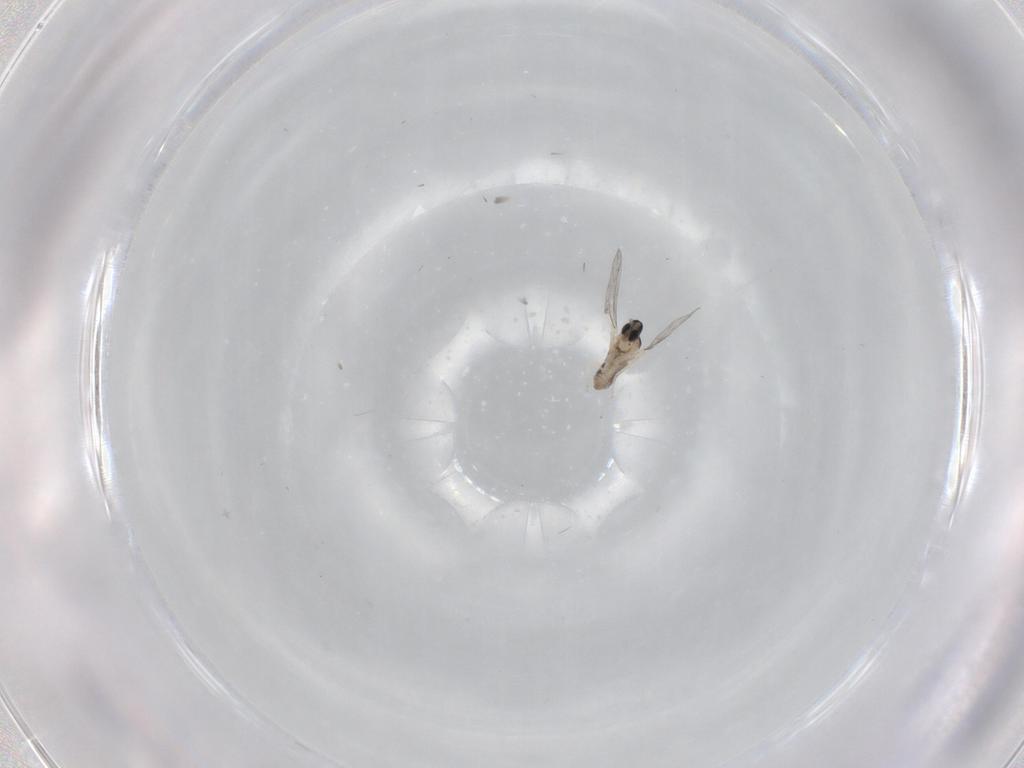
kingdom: Animalia
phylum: Arthropoda
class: Insecta
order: Diptera
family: Cecidomyiidae
